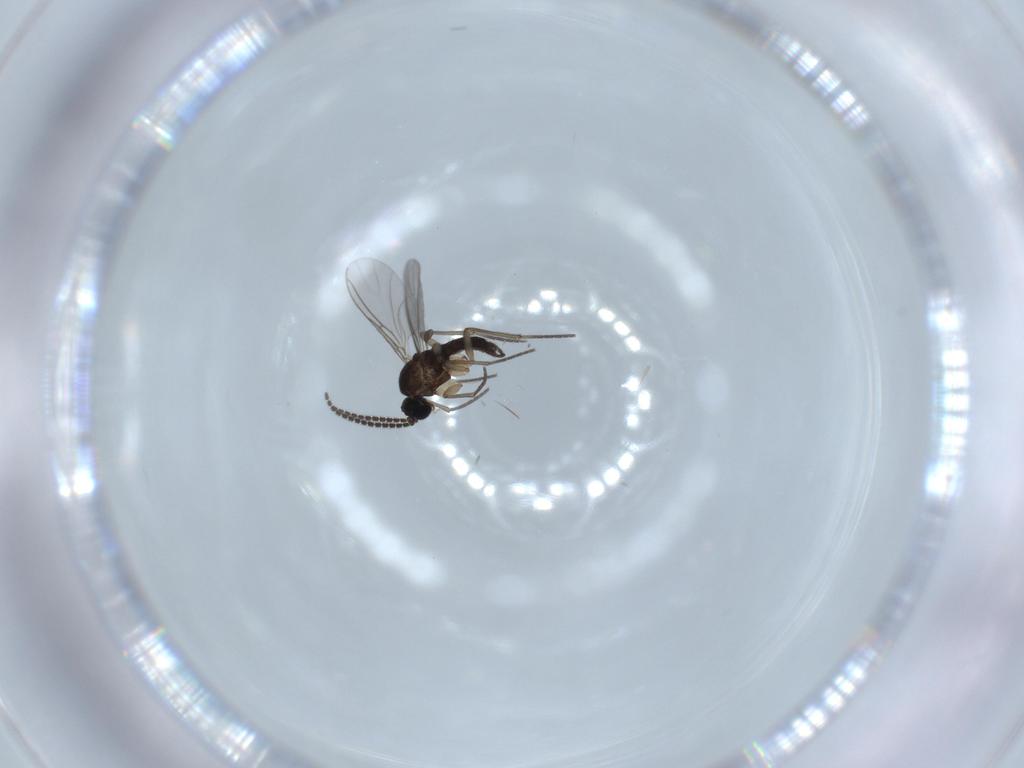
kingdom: Animalia
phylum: Arthropoda
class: Insecta
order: Diptera
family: Sciaridae
